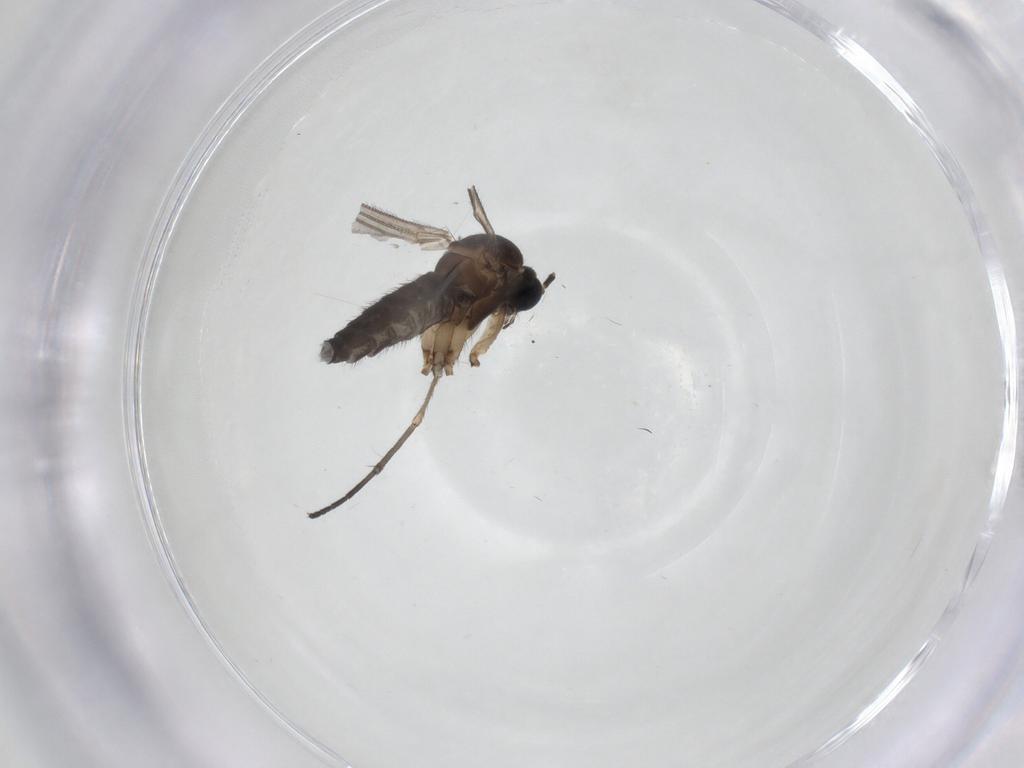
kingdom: Animalia
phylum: Arthropoda
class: Insecta
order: Diptera
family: Sciaridae
